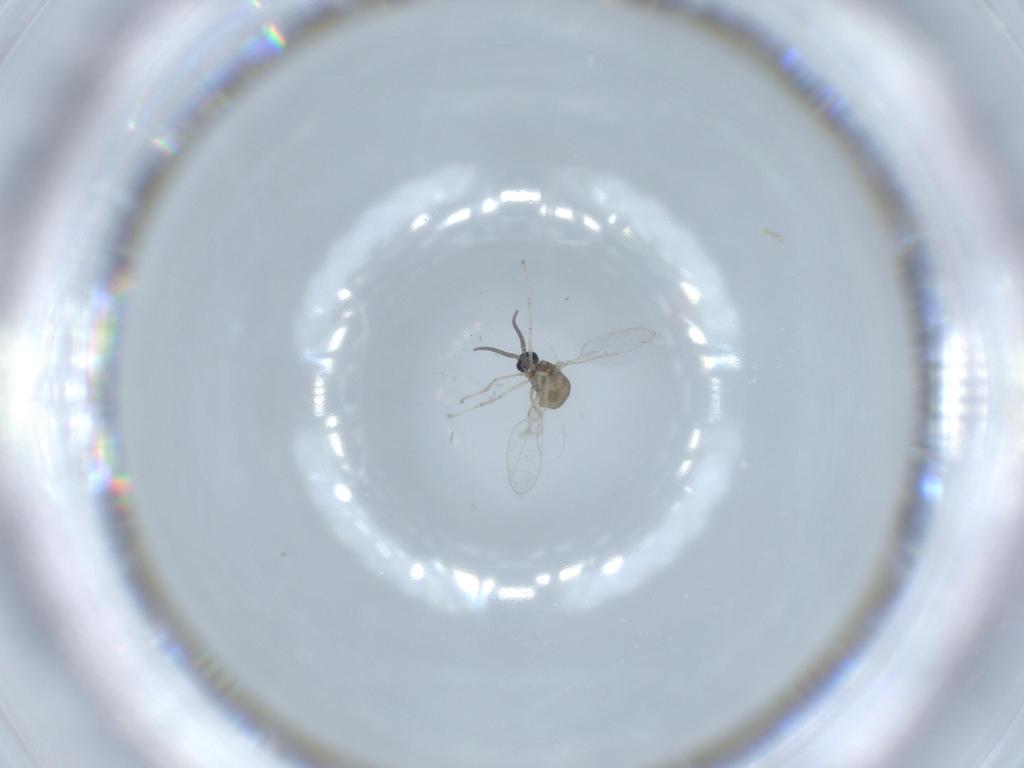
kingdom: Animalia
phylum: Arthropoda
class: Insecta
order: Diptera
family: Cecidomyiidae
